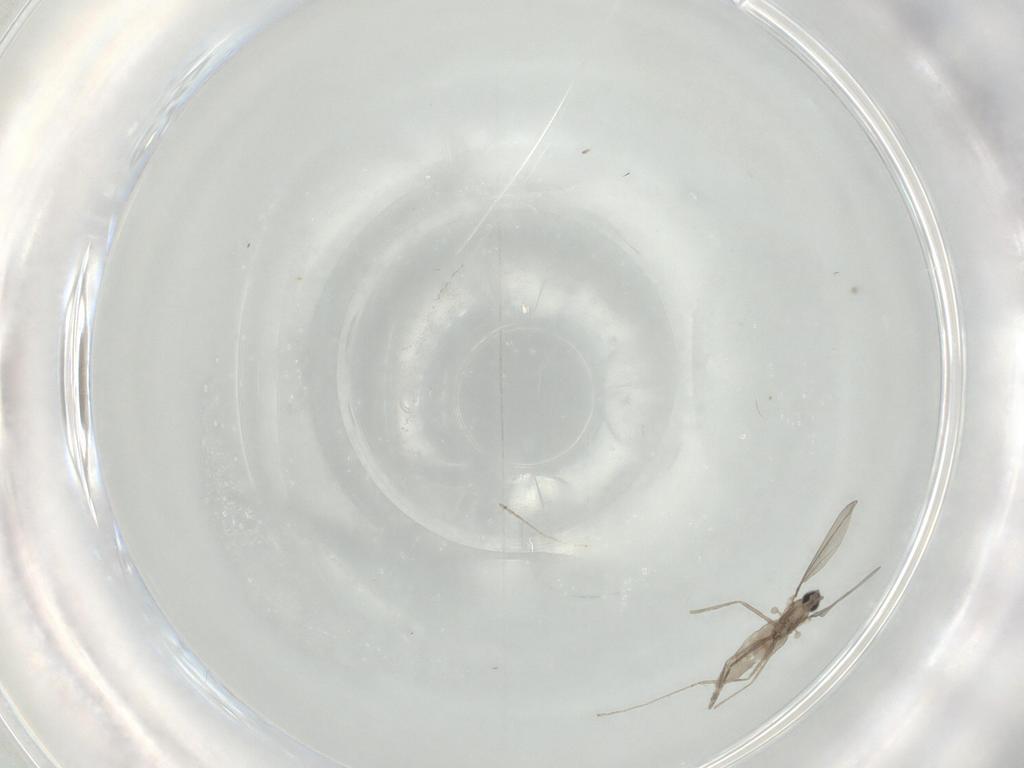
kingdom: Animalia
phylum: Arthropoda
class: Insecta
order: Diptera
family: Cecidomyiidae
